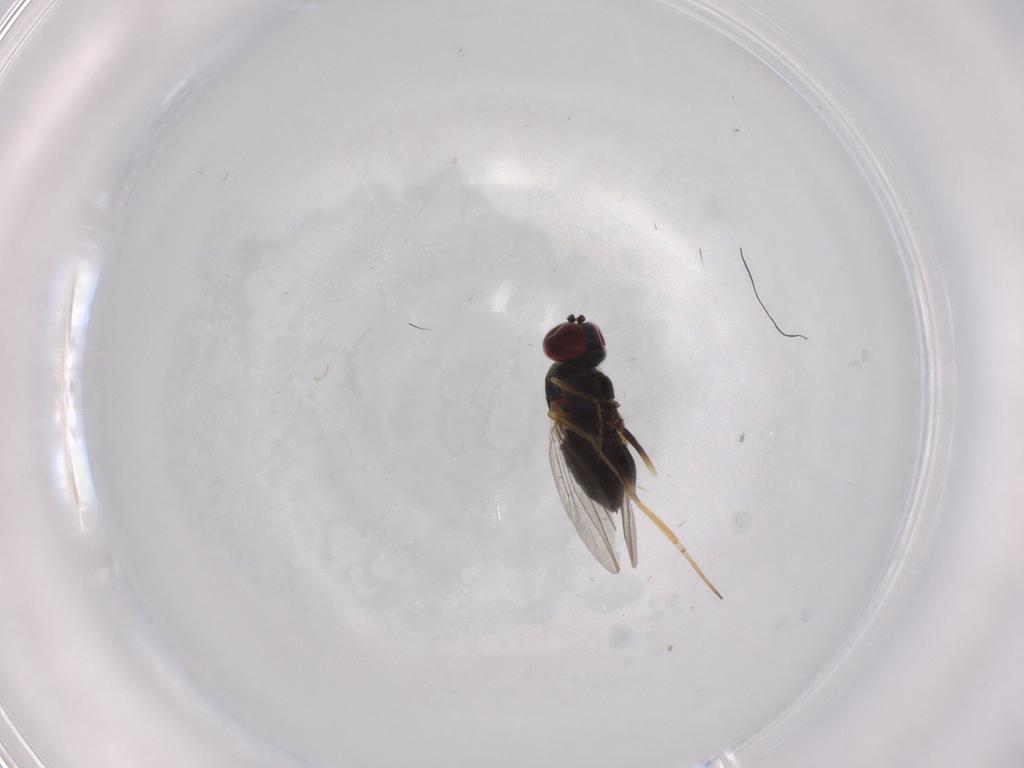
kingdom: Animalia
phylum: Arthropoda
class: Insecta
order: Diptera
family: Dolichopodidae
